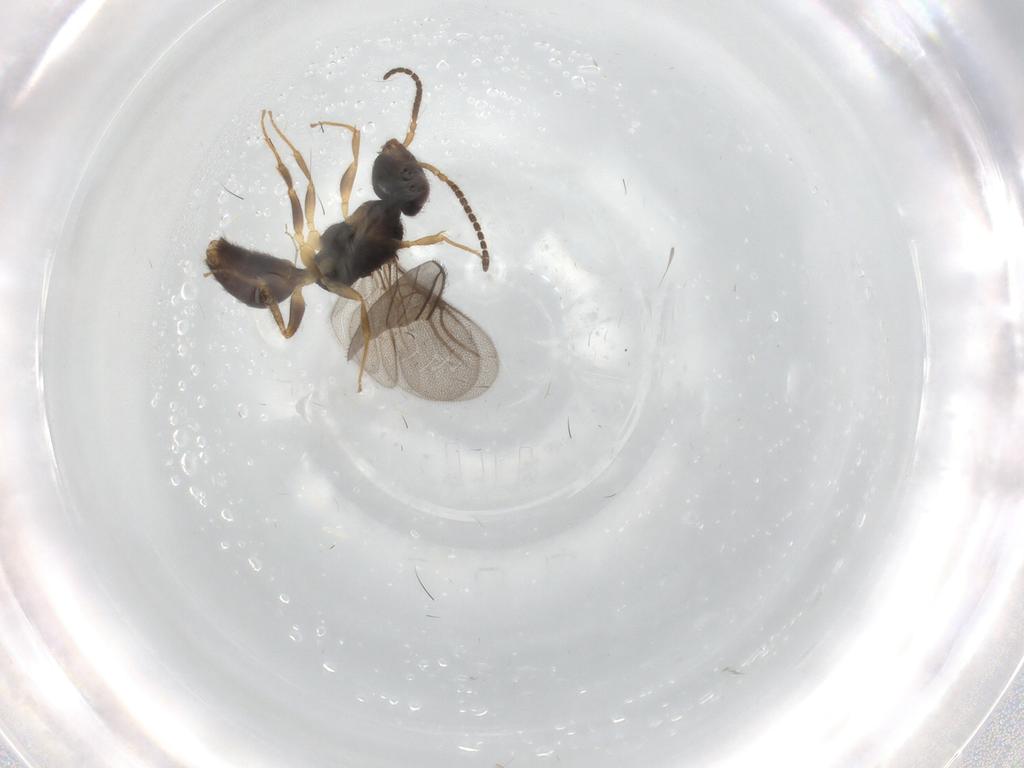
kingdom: Animalia
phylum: Arthropoda
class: Insecta
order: Hymenoptera
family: Bethylidae
